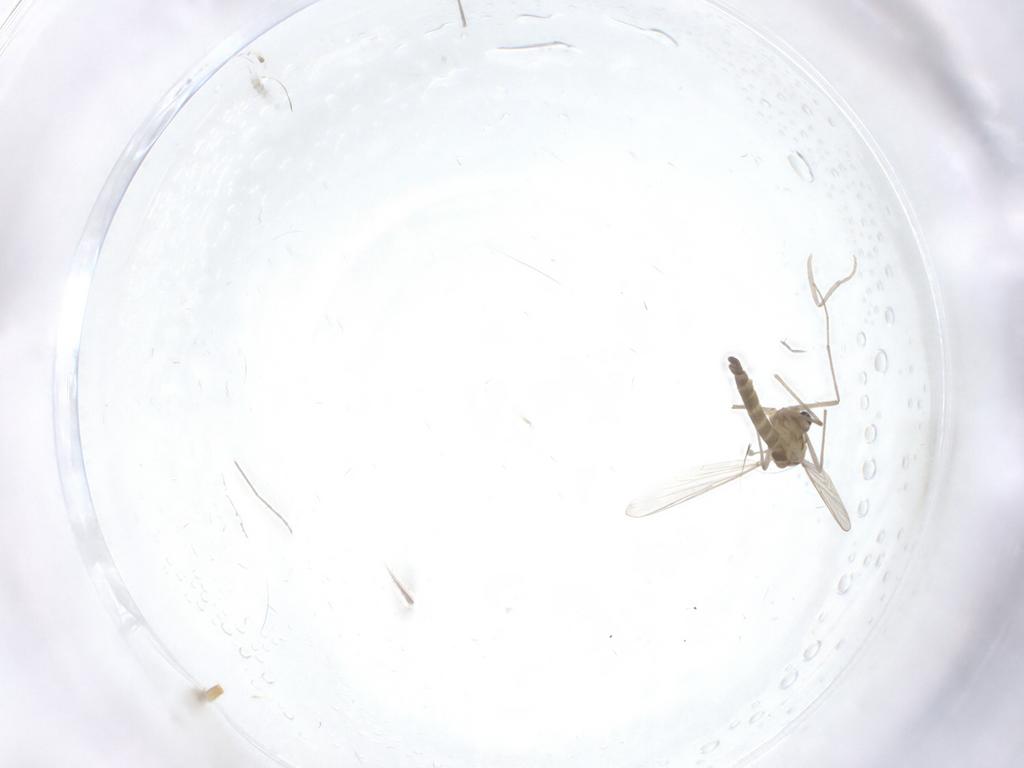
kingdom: Animalia
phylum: Arthropoda
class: Insecta
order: Diptera
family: Chironomidae
